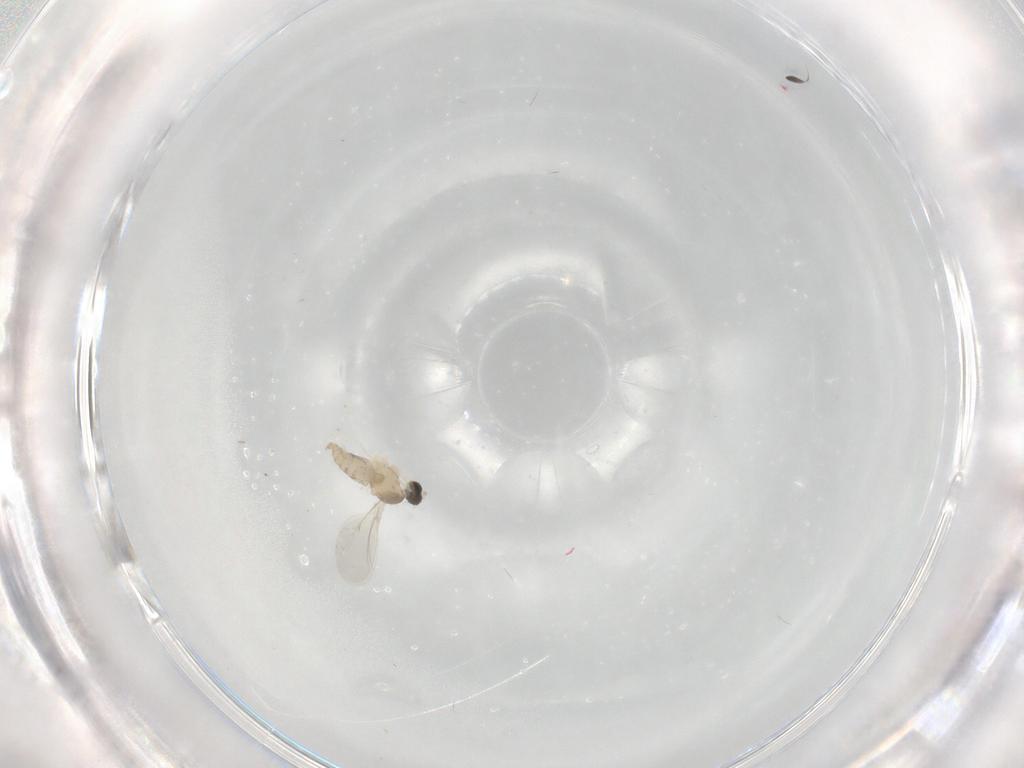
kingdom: Animalia
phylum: Arthropoda
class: Insecta
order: Diptera
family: Cecidomyiidae
